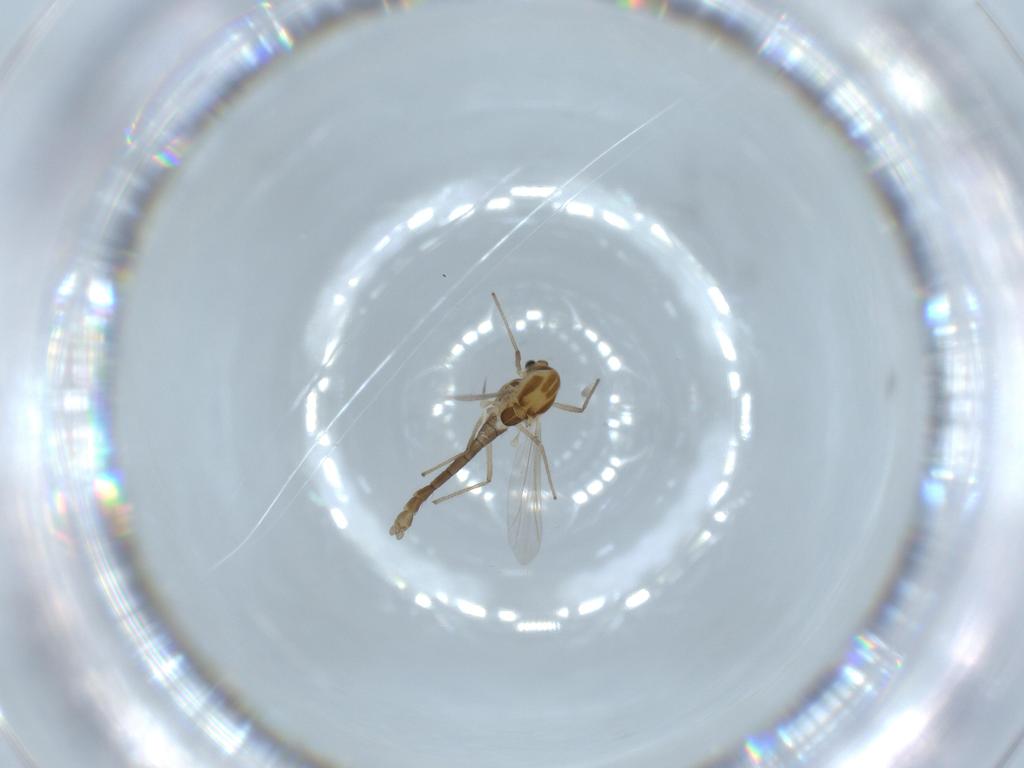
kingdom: Animalia
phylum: Arthropoda
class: Insecta
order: Diptera
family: Chironomidae
